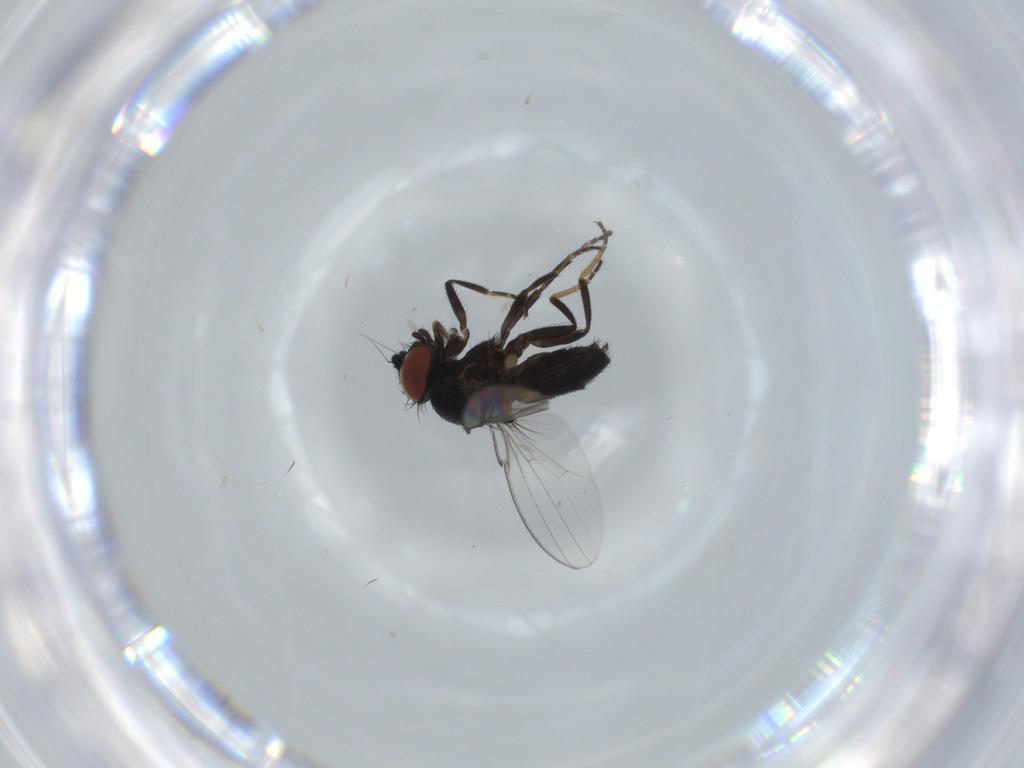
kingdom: Animalia
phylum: Arthropoda
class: Insecta
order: Diptera
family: Milichiidae
